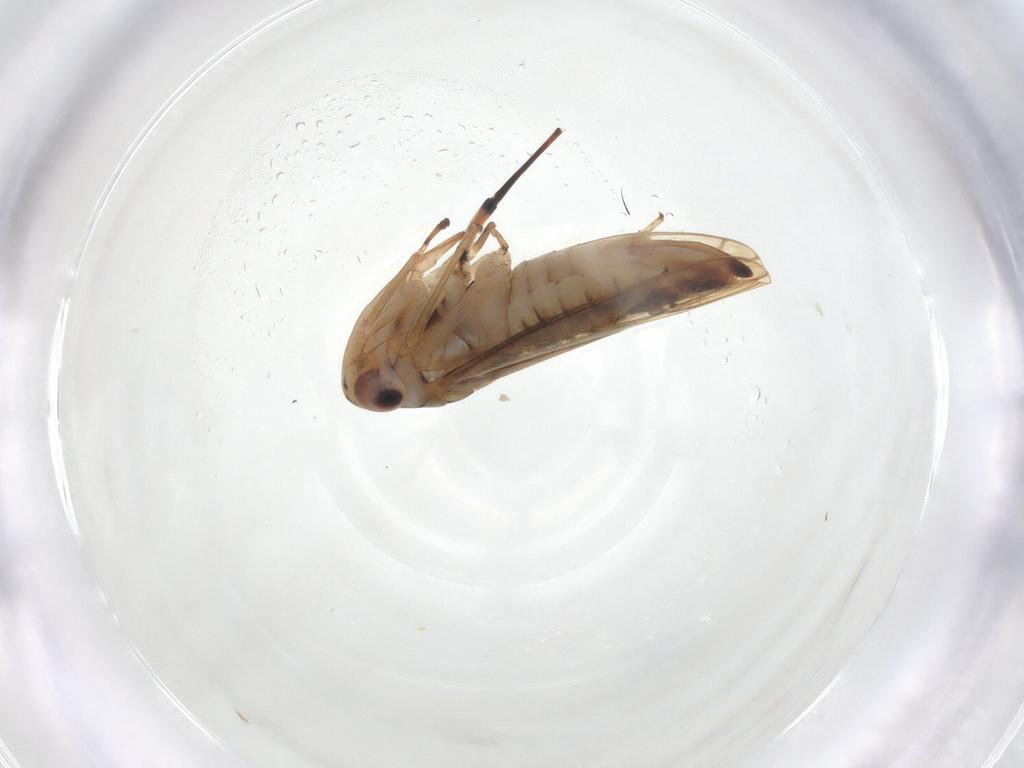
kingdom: Animalia
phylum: Arthropoda
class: Insecta
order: Hemiptera
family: Cicadellidae
